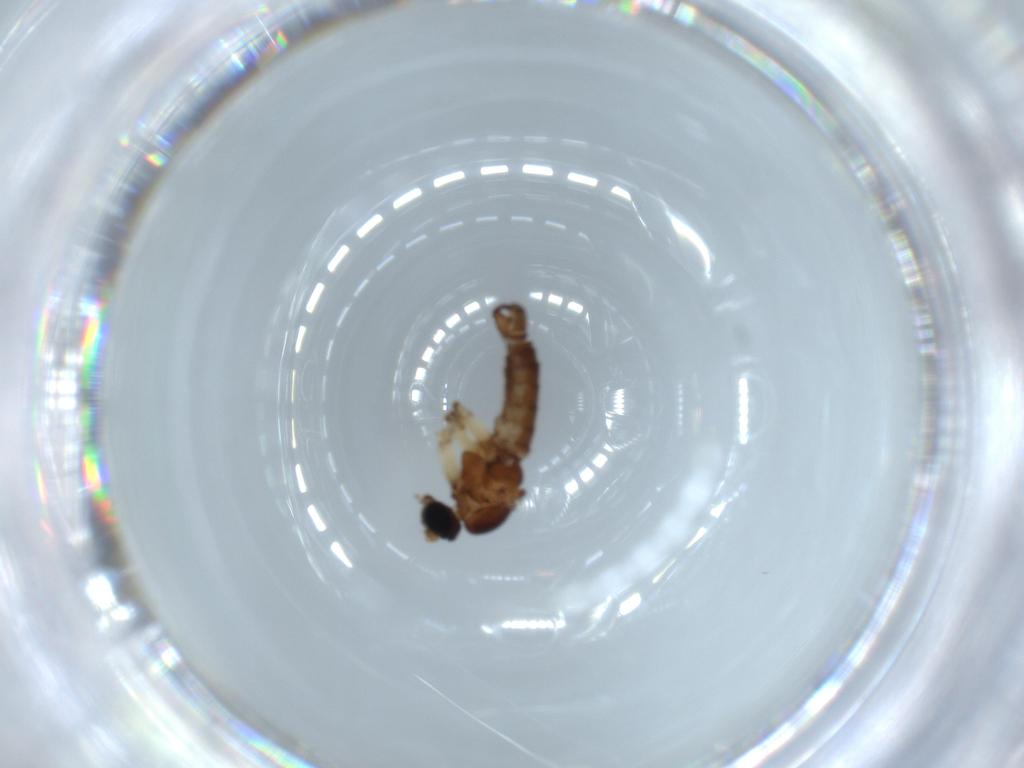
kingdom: Animalia
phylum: Arthropoda
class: Insecta
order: Diptera
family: Sciaridae
